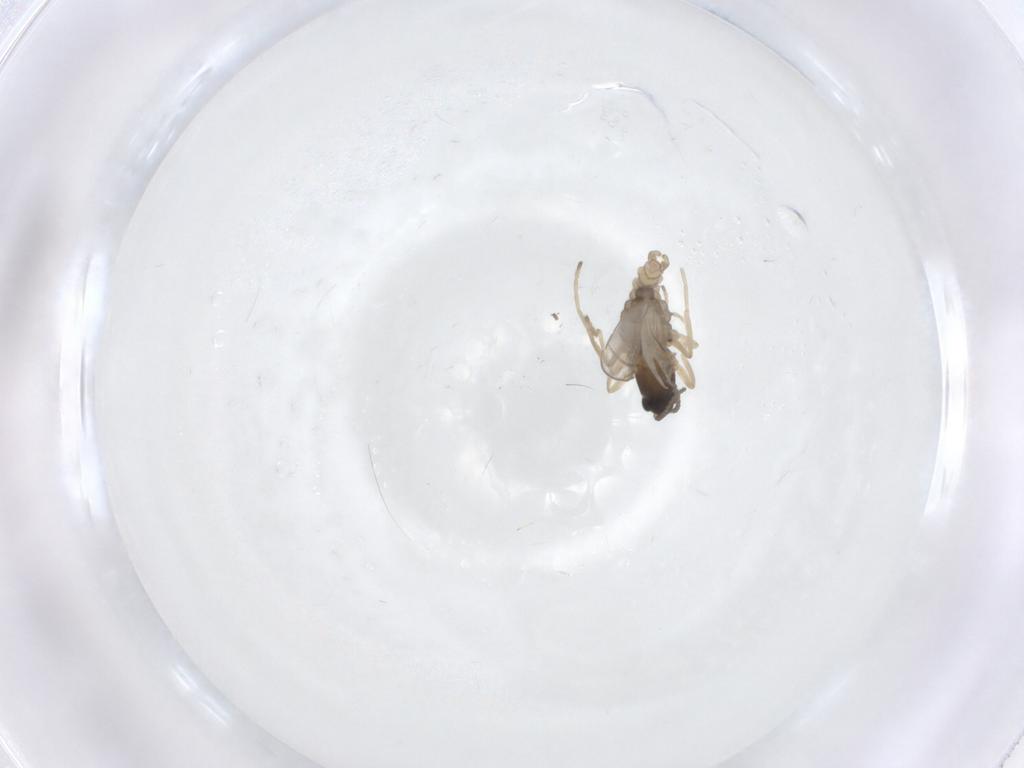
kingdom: Animalia
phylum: Arthropoda
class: Insecta
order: Diptera
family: Cecidomyiidae
